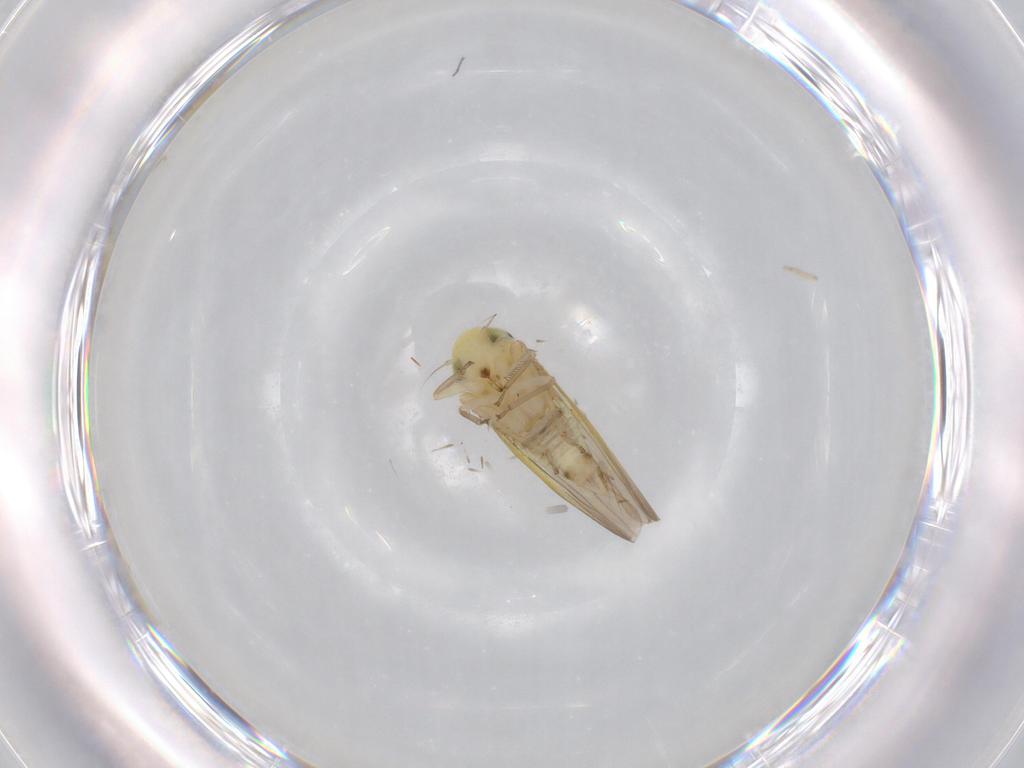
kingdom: Animalia
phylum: Arthropoda
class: Insecta
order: Hemiptera
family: Cicadellidae
